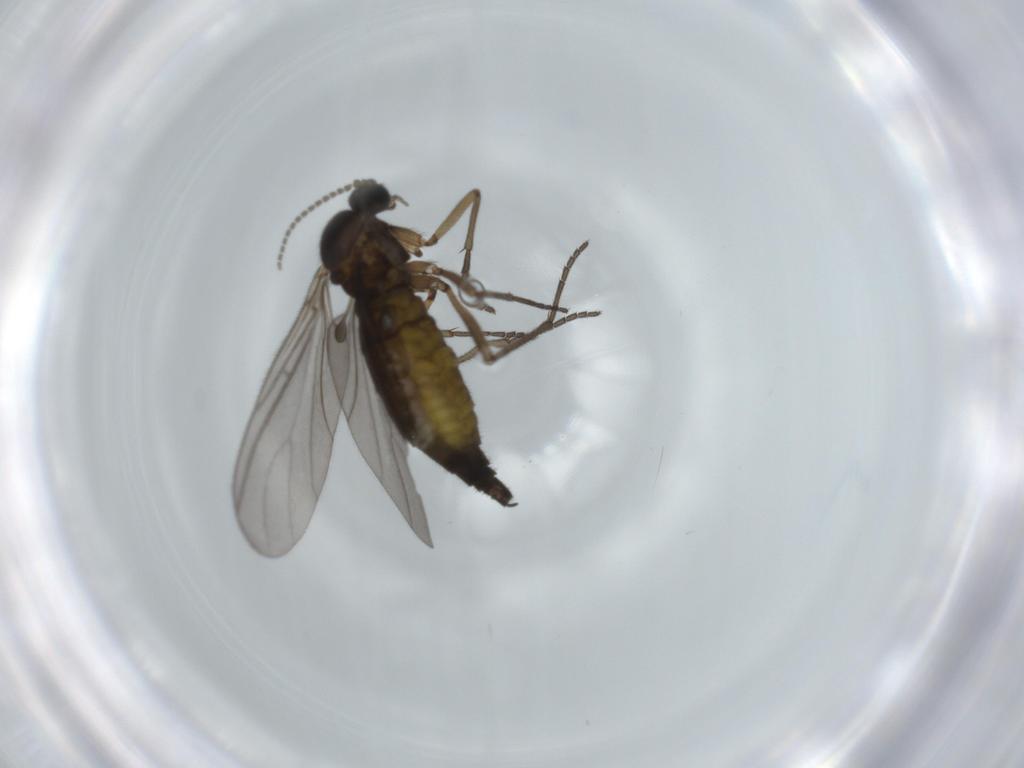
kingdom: Animalia
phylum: Arthropoda
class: Insecta
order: Diptera
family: Sciaridae
